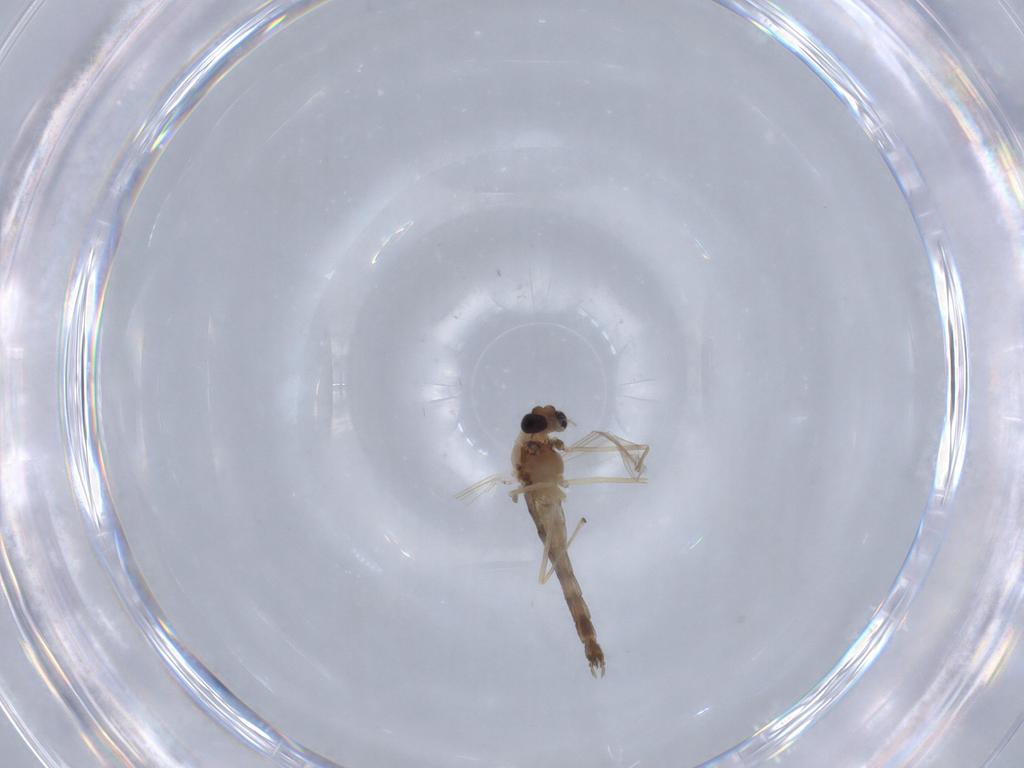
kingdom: Animalia
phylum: Arthropoda
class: Insecta
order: Diptera
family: Chironomidae
